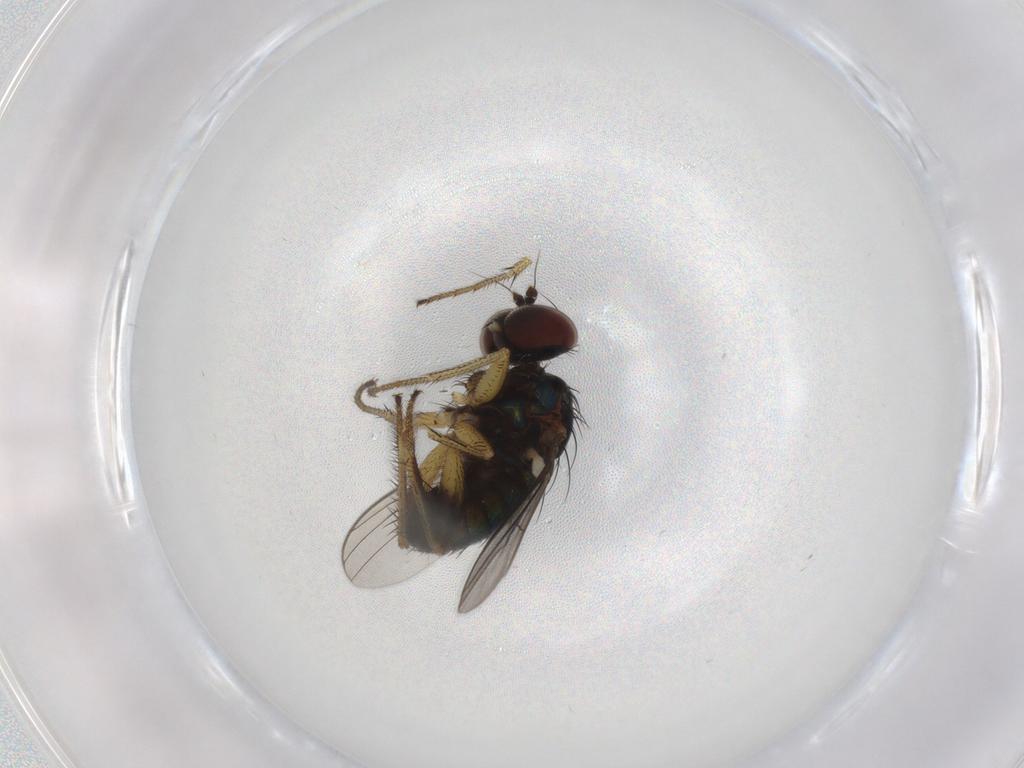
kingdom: Animalia
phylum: Arthropoda
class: Insecta
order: Diptera
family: Dolichopodidae
